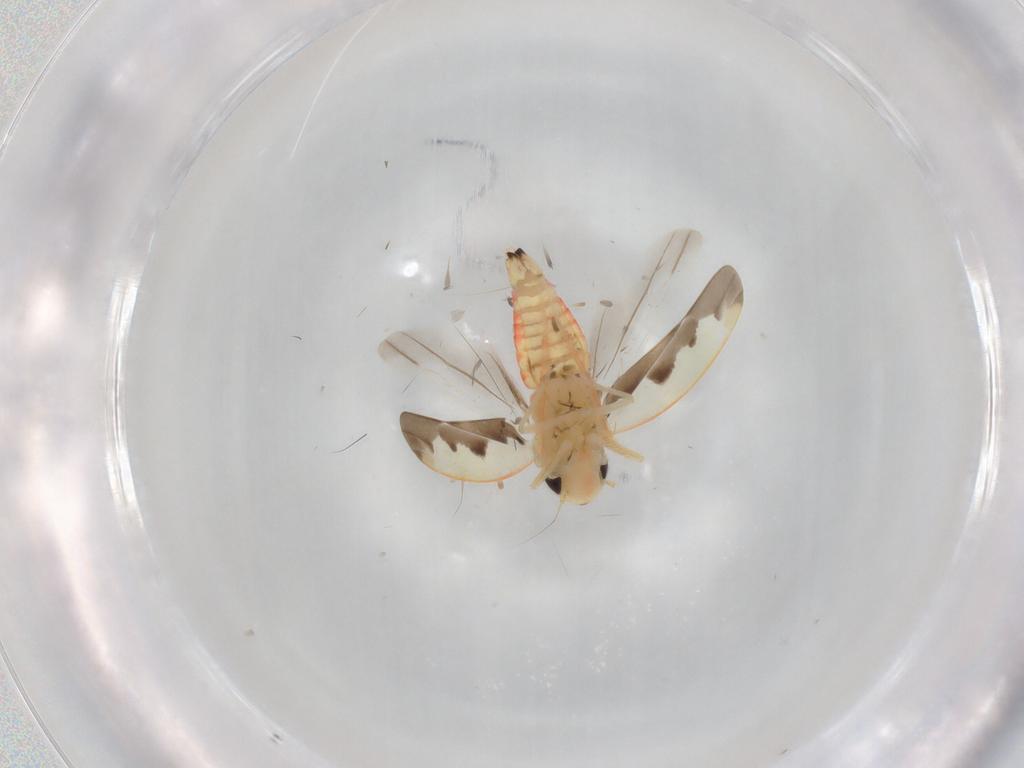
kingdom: Animalia
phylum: Arthropoda
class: Insecta
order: Hemiptera
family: Cicadellidae
